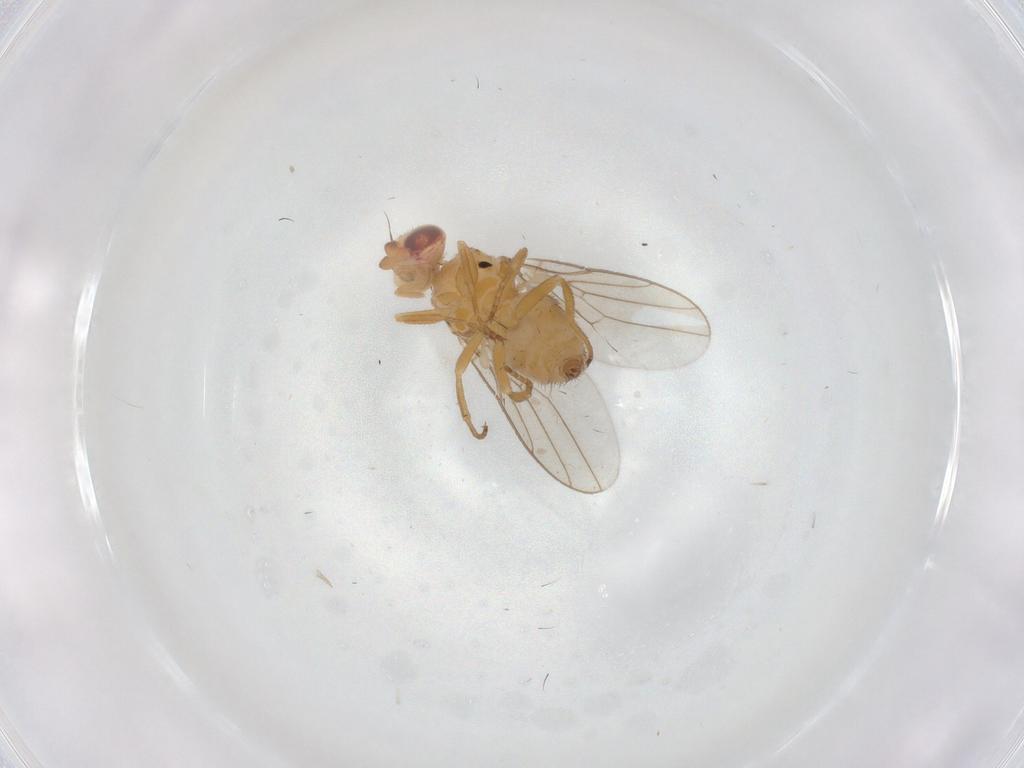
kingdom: Animalia
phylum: Arthropoda
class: Insecta
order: Diptera
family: Chloropidae
